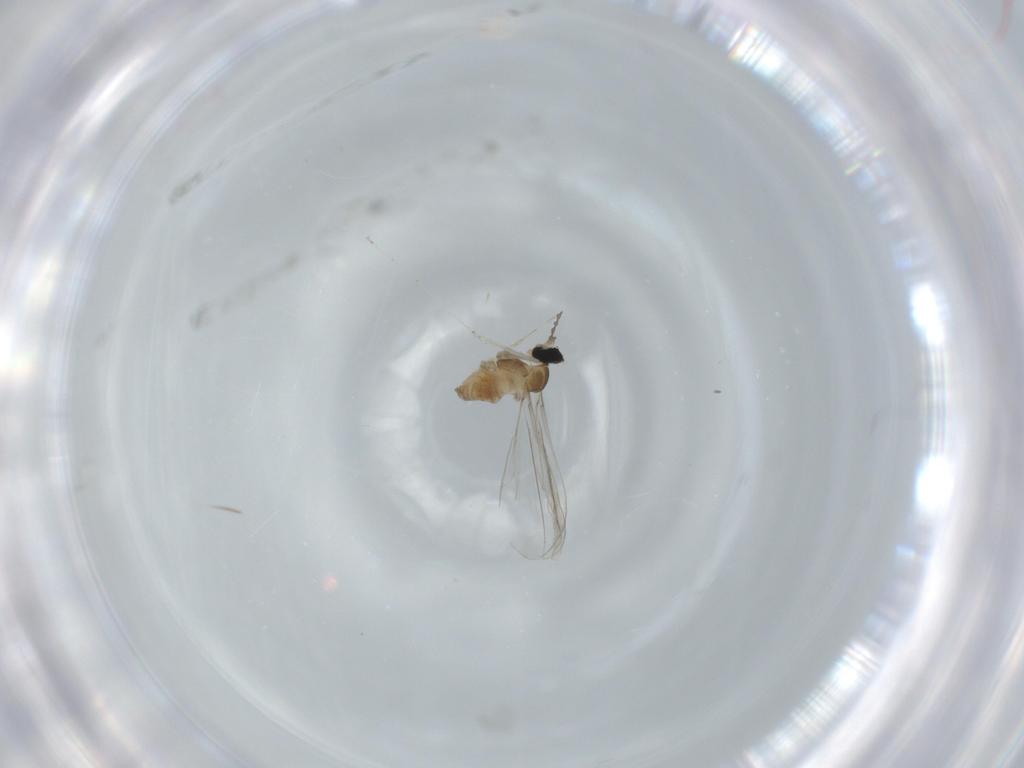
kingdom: Animalia
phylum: Arthropoda
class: Insecta
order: Diptera
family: Cecidomyiidae
